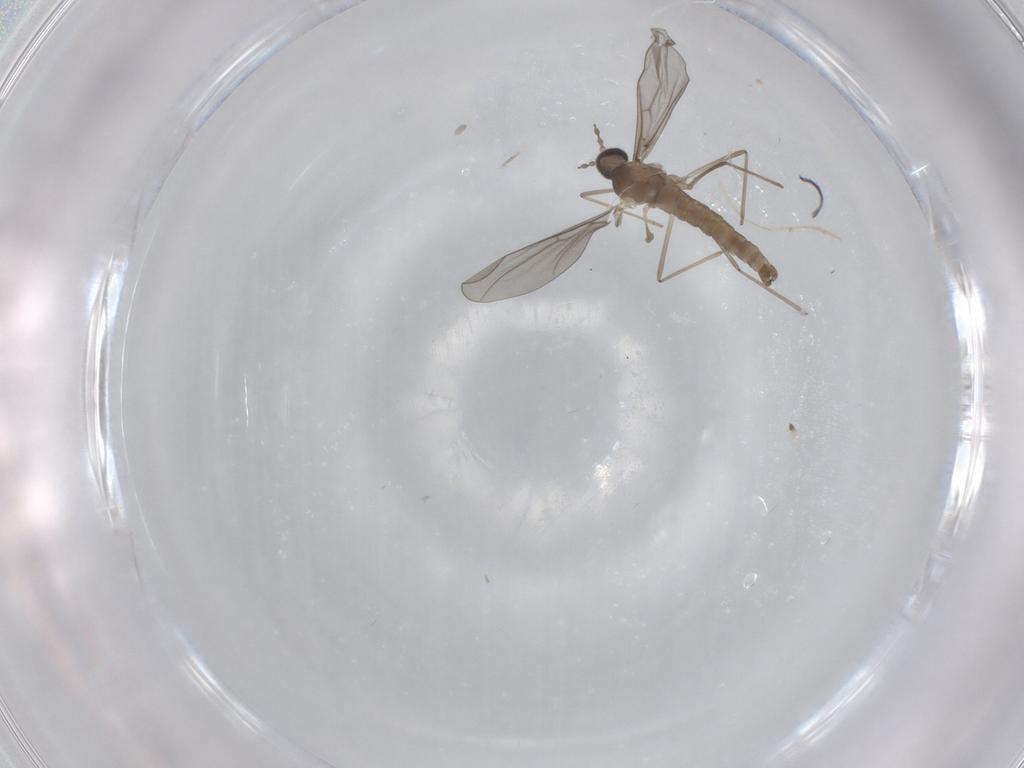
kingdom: Animalia
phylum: Arthropoda
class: Insecta
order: Diptera
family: Cecidomyiidae
